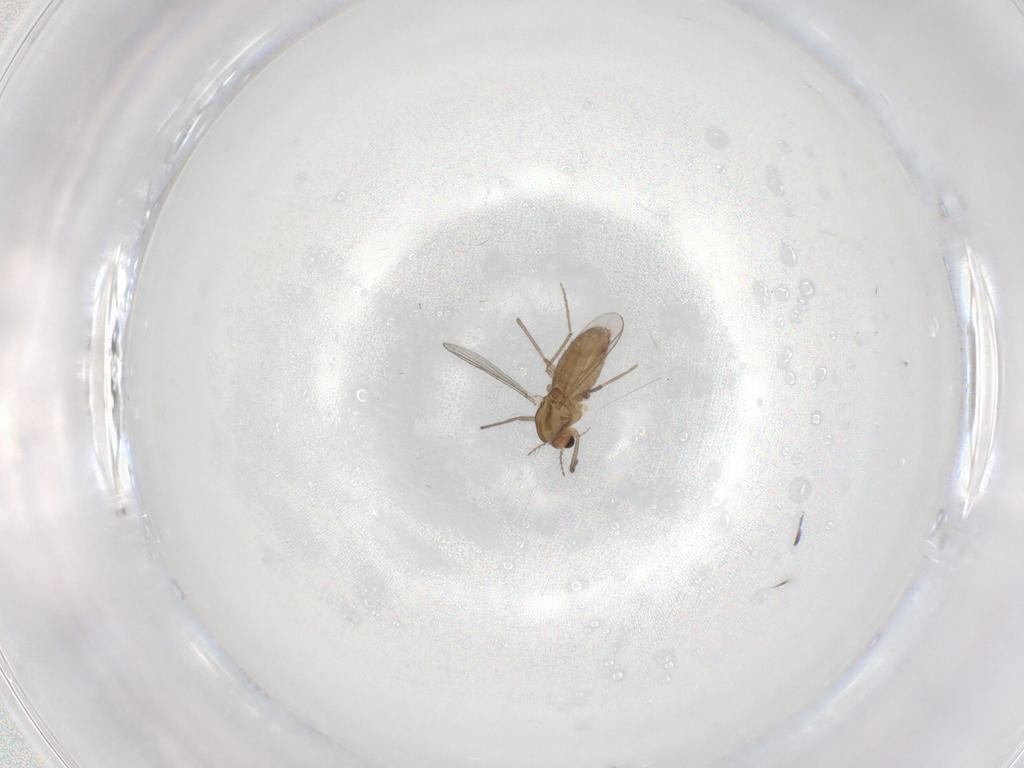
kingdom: Animalia
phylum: Arthropoda
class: Insecta
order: Diptera
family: Chironomidae
